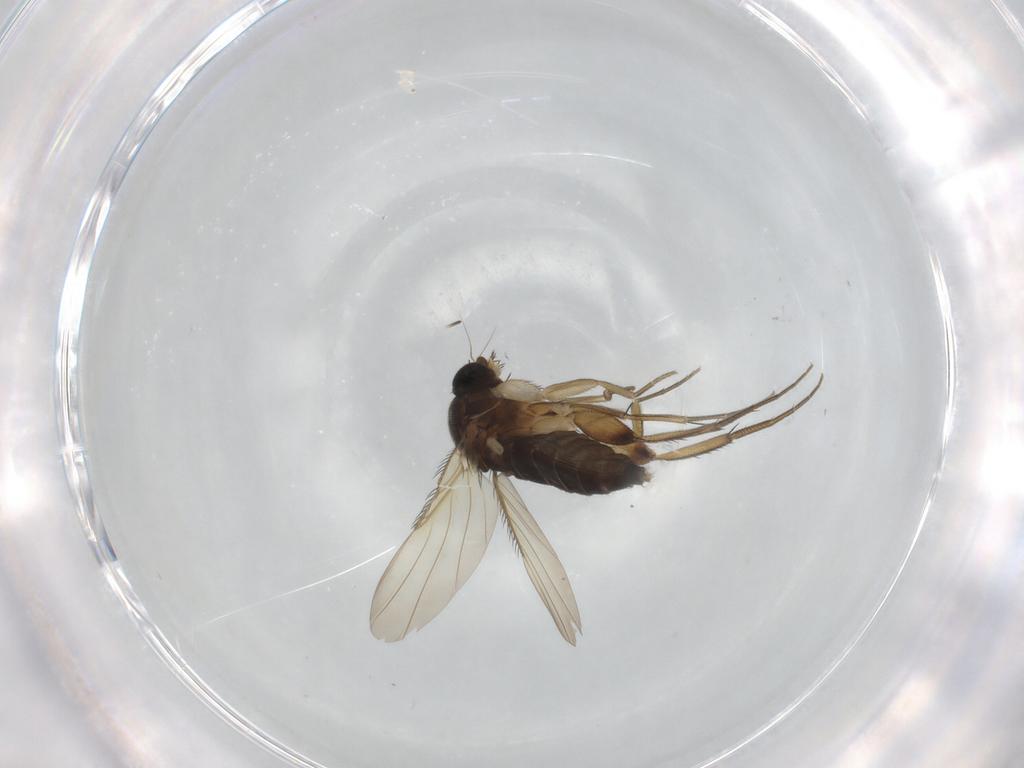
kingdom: Animalia
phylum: Arthropoda
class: Insecta
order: Diptera
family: Phoridae
